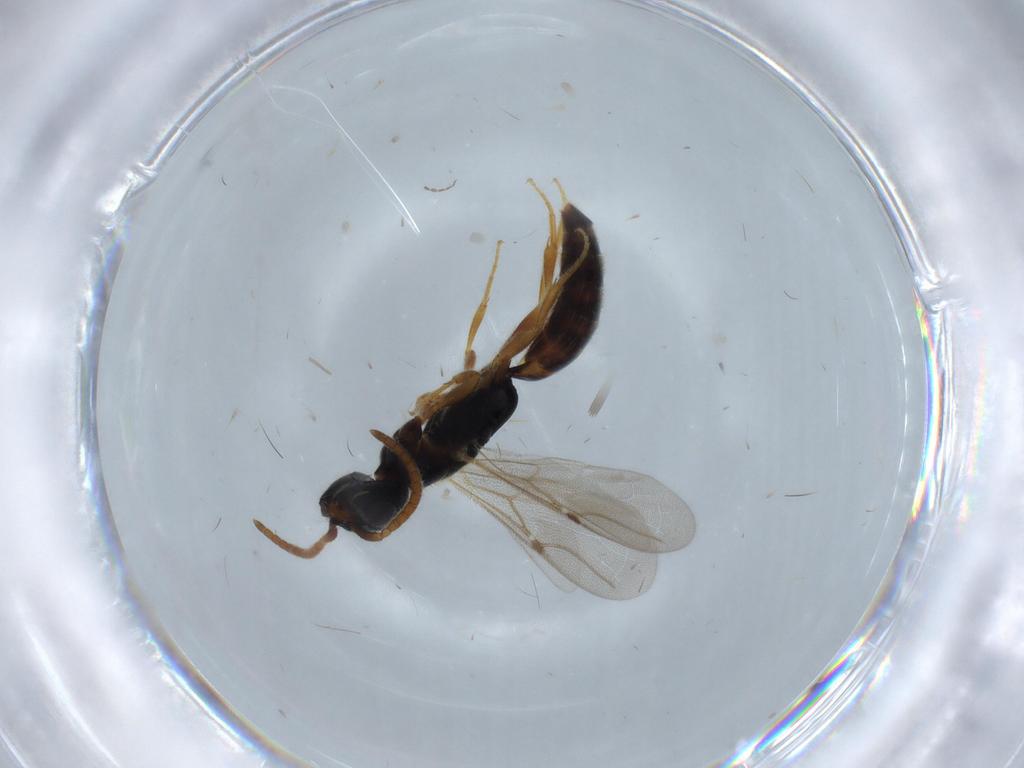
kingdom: Animalia
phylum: Arthropoda
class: Insecta
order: Hymenoptera
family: Bethylidae
